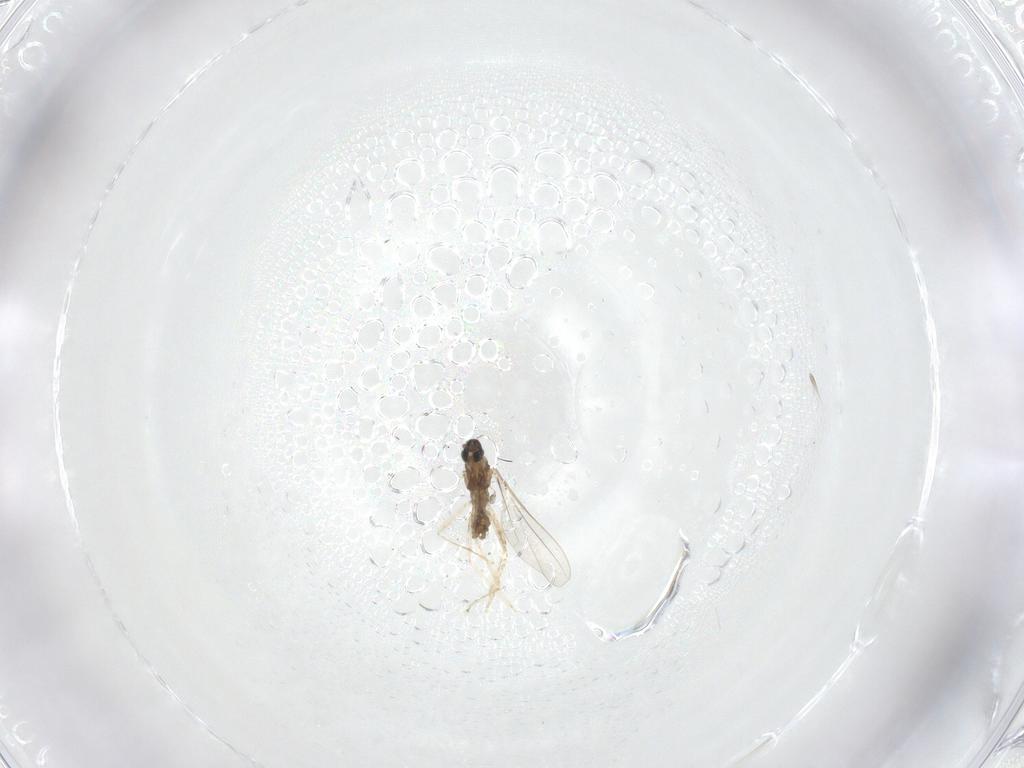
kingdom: Animalia
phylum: Arthropoda
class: Insecta
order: Diptera
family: Cecidomyiidae
